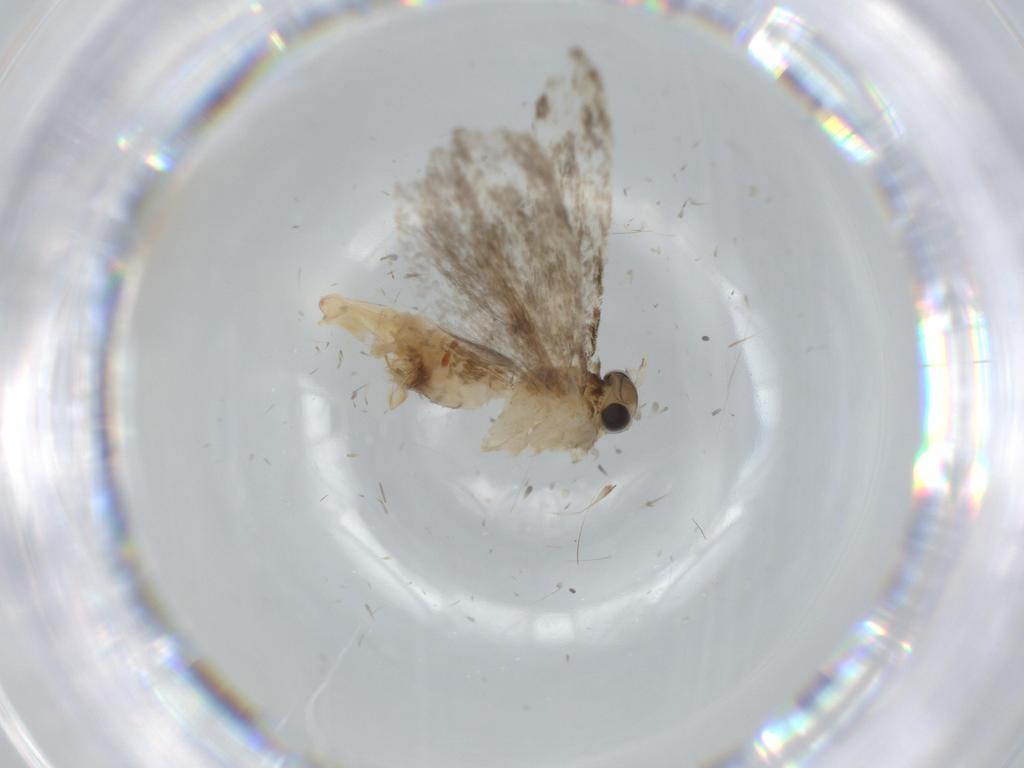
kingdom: Animalia
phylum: Arthropoda
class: Insecta
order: Lepidoptera
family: Tineidae
